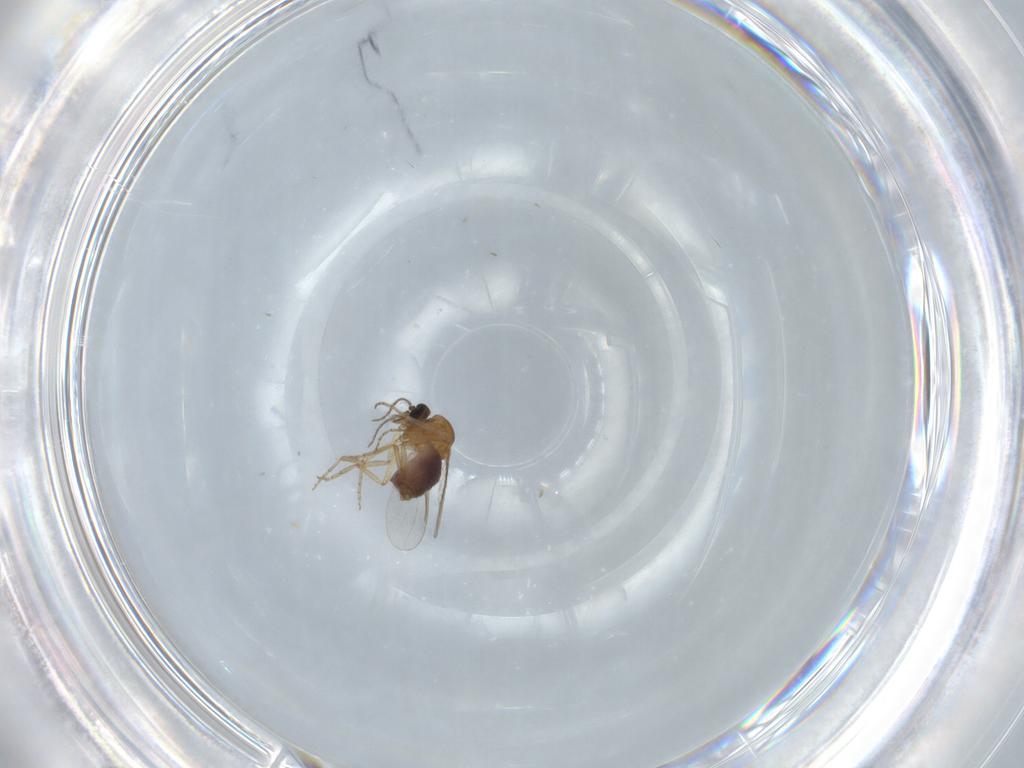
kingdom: Animalia
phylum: Arthropoda
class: Insecta
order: Diptera
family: Ceratopogonidae
